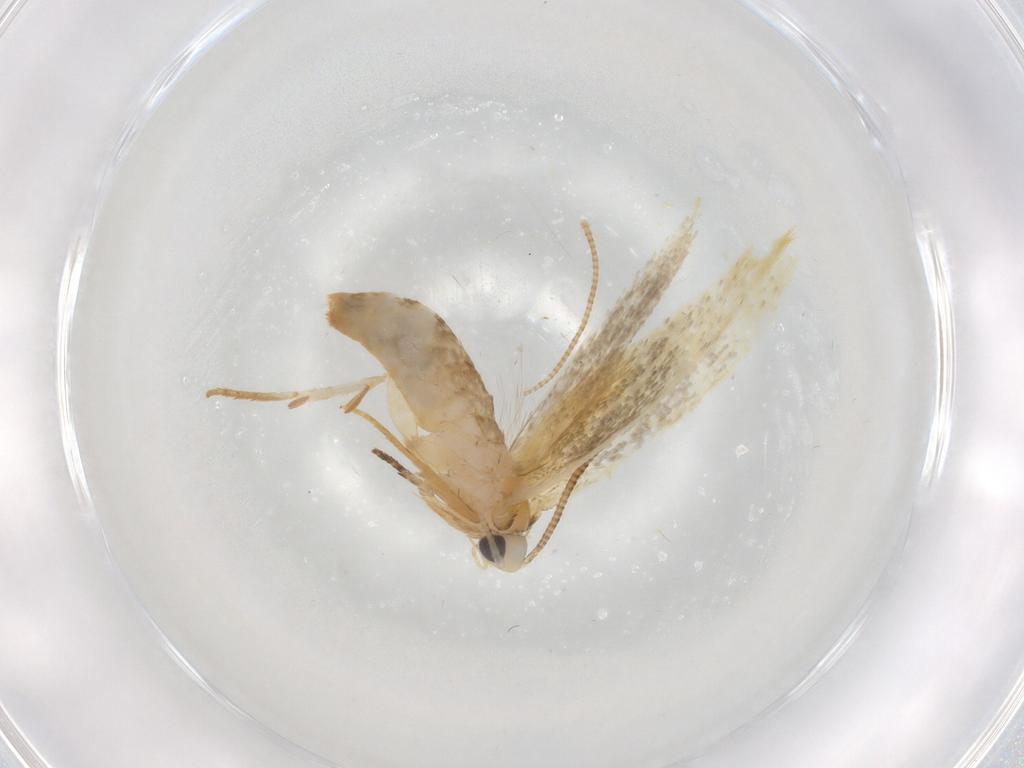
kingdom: Animalia
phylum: Arthropoda
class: Insecta
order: Lepidoptera
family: Tineidae
